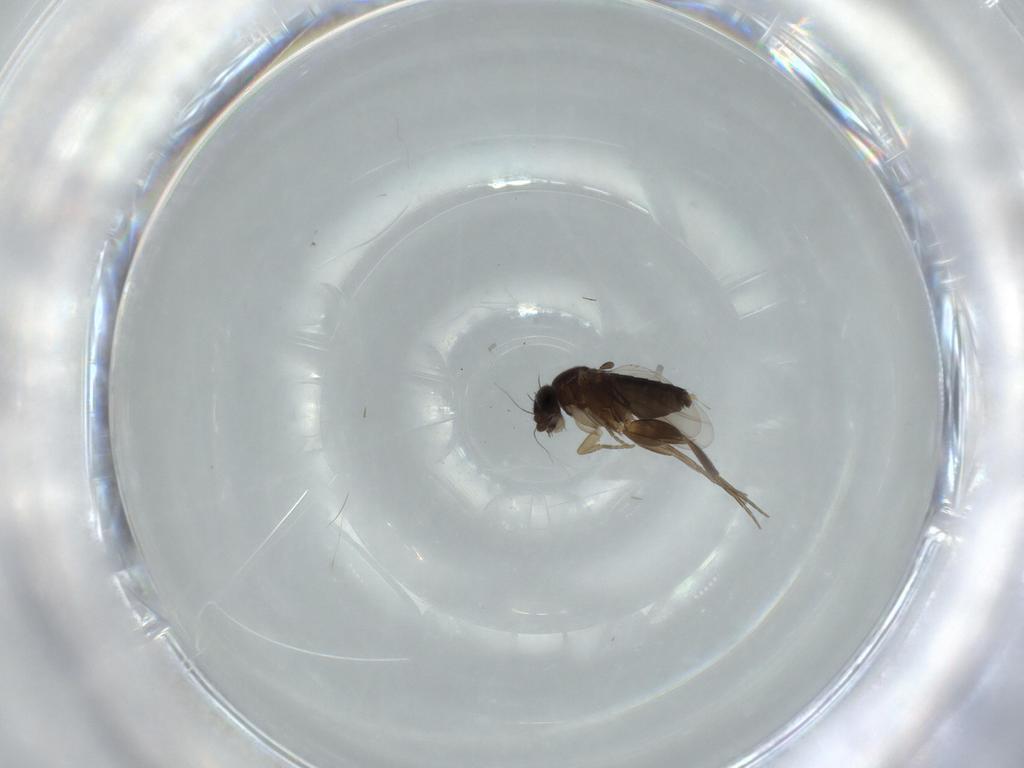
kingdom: Animalia
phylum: Arthropoda
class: Insecta
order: Diptera
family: Phoridae
